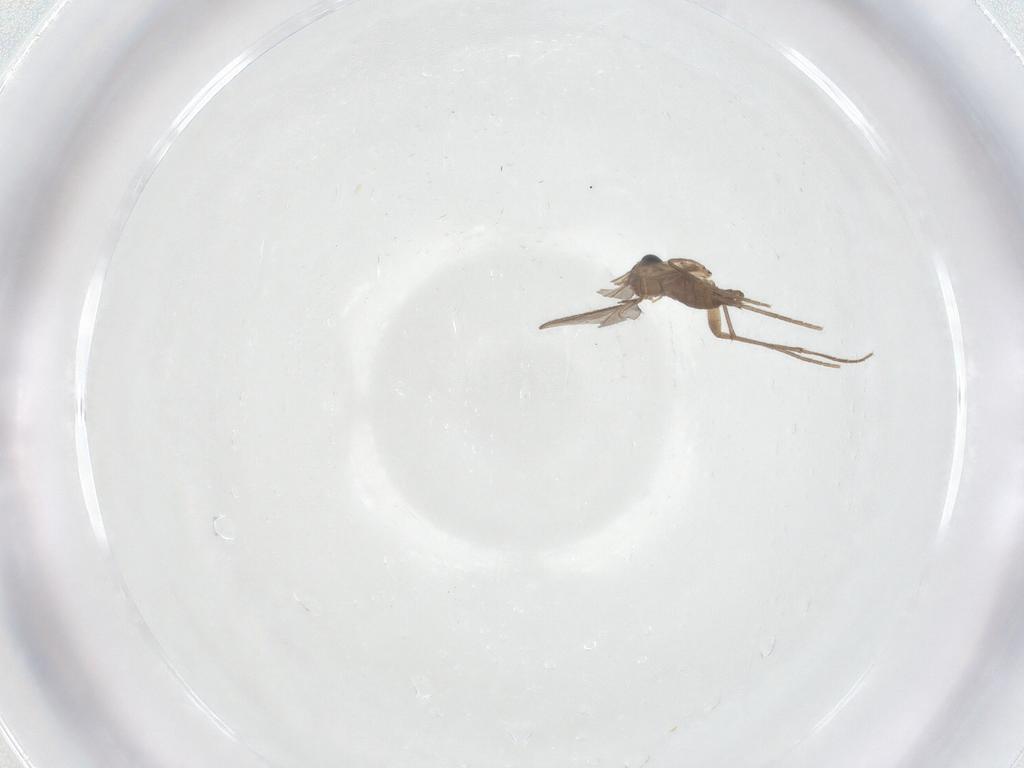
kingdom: Animalia
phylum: Arthropoda
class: Insecta
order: Diptera
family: Sciaridae
